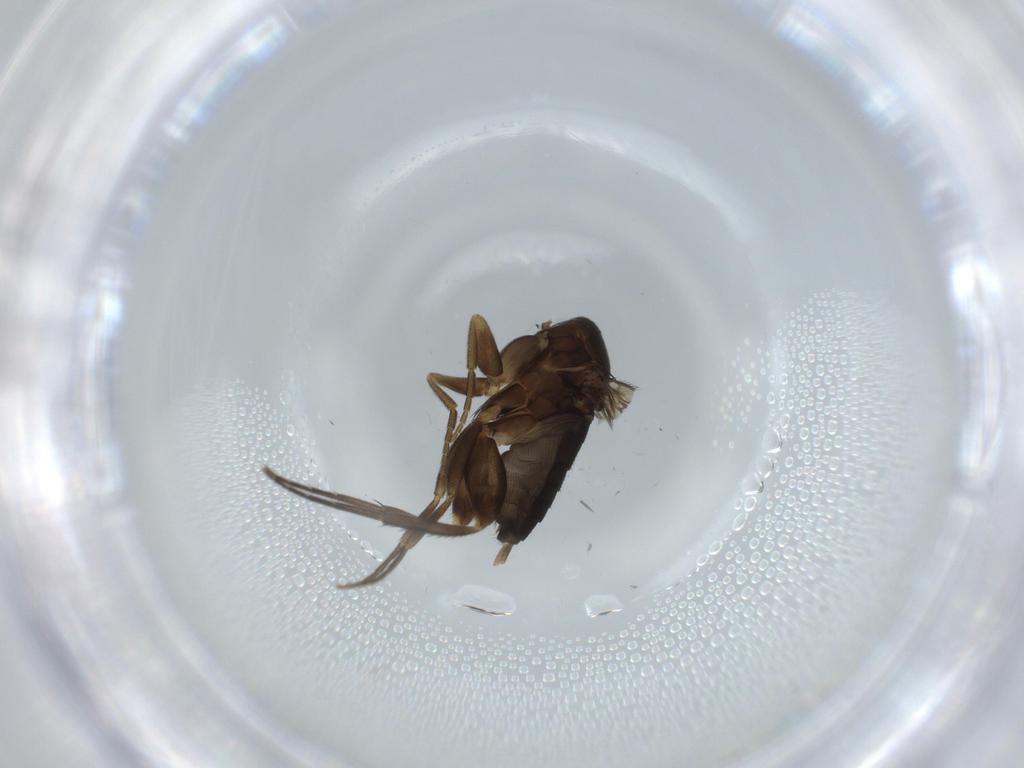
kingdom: Animalia
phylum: Arthropoda
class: Insecta
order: Diptera
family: Phoridae
